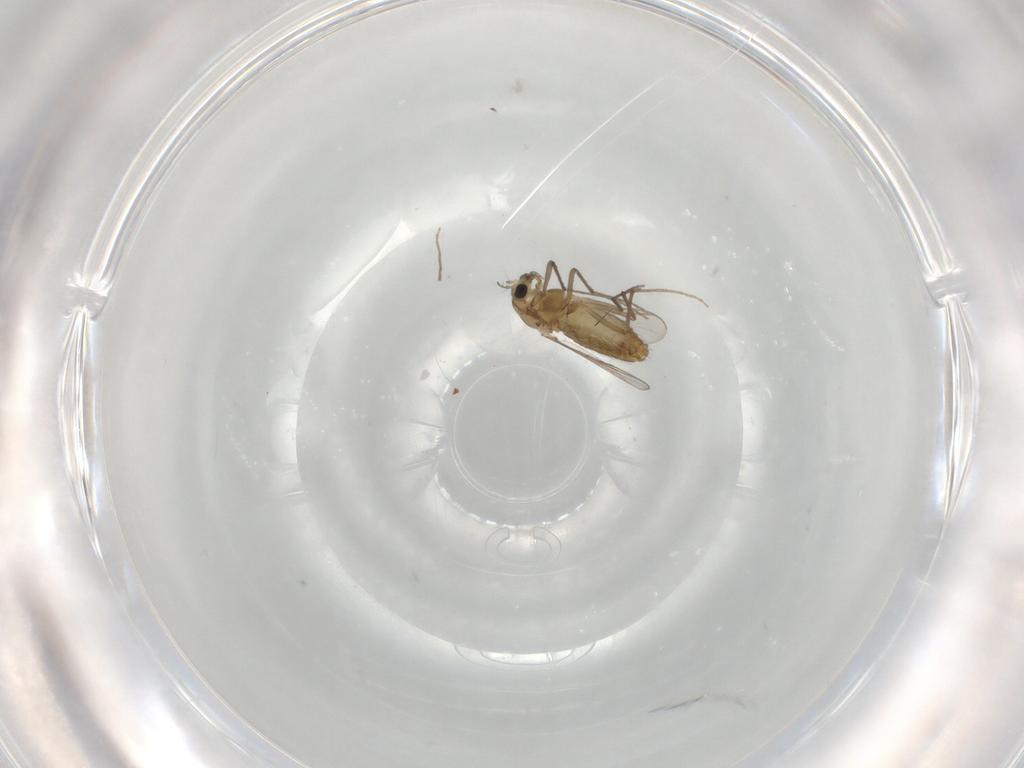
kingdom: Animalia
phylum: Arthropoda
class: Insecta
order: Diptera
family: Chironomidae
